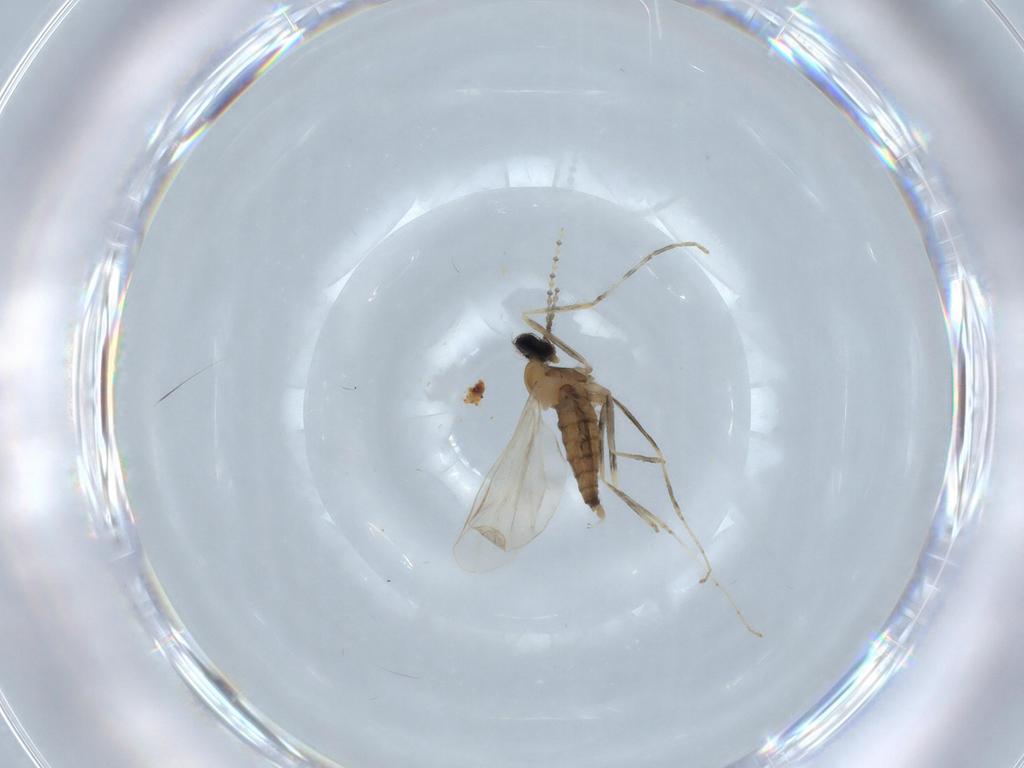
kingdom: Animalia
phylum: Arthropoda
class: Insecta
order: Diptera
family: Cecidomyiidae
